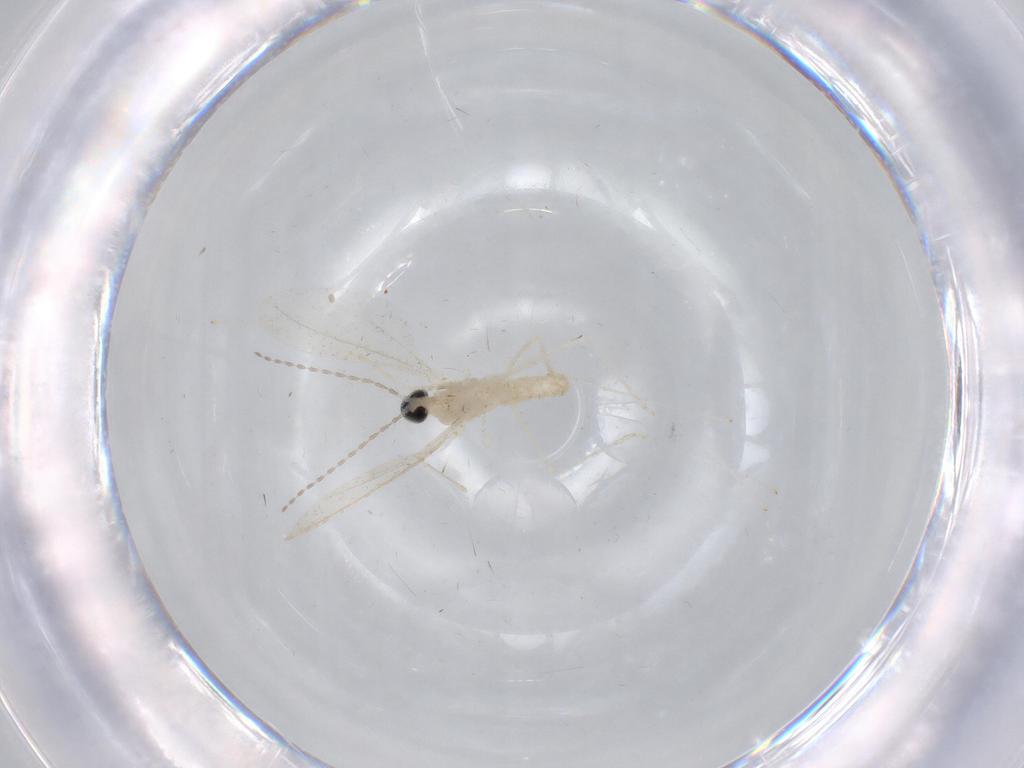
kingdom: Animalia
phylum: Arthropoda
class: Insecta
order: Diptera
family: Cecidomyiidae
